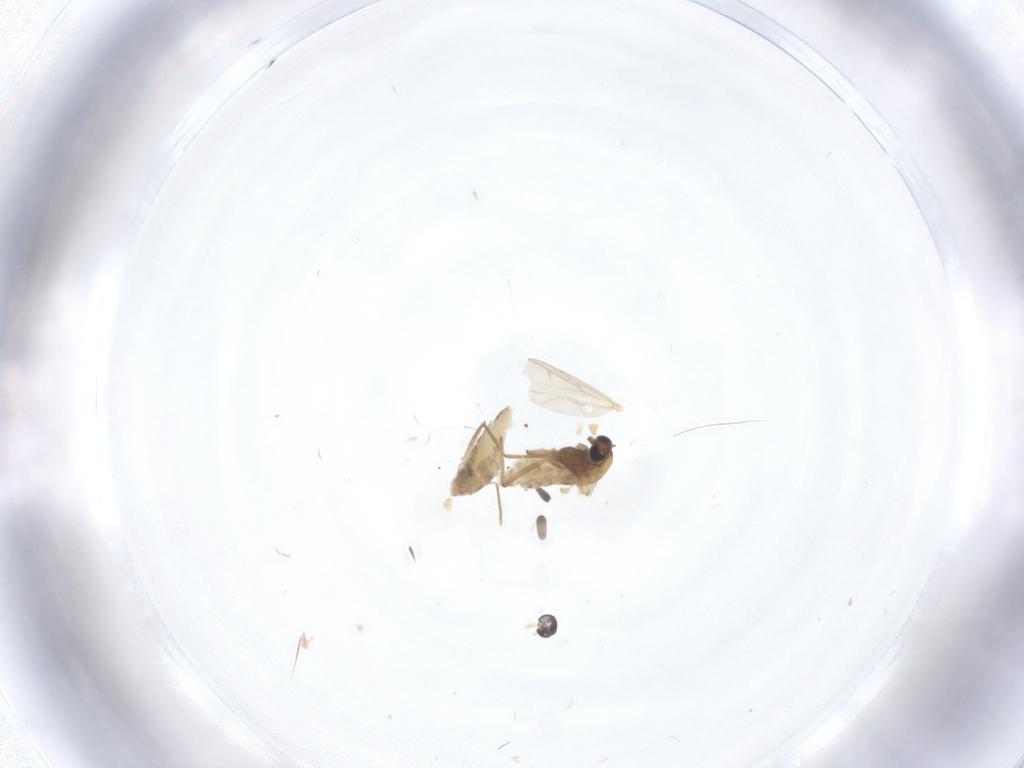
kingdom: Animalia
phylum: Arthropoda
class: Insecta
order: Diptera
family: Chironomidae
